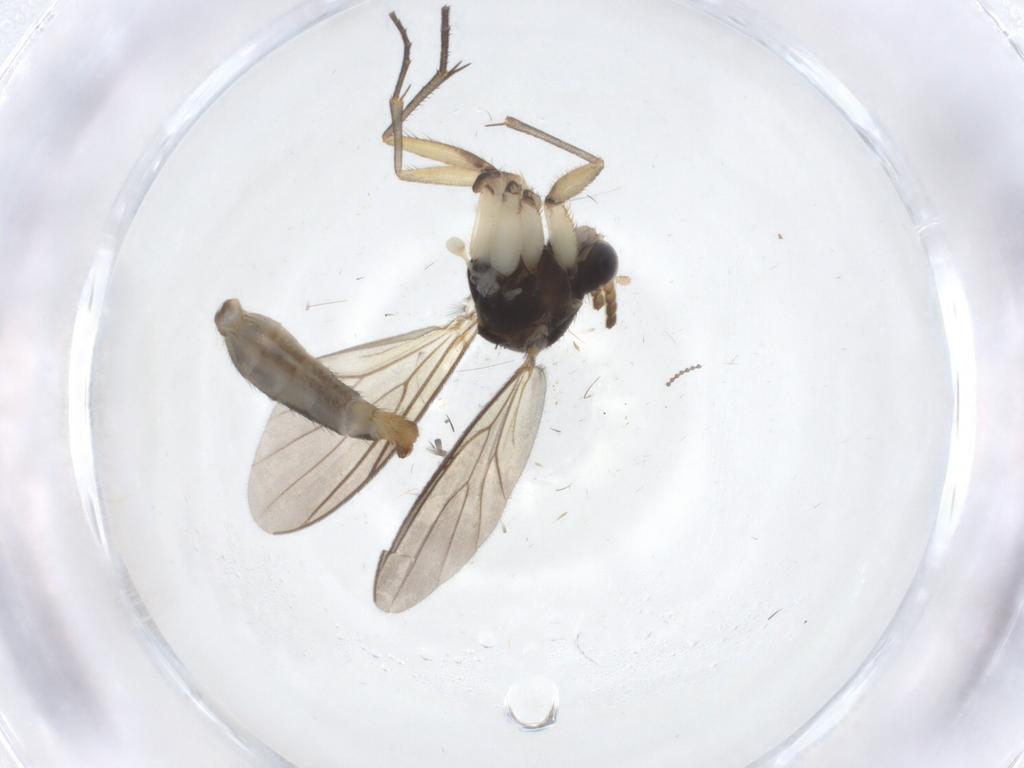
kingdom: Animalia
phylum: Arthropoda
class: Insecta
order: Diptera
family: Cecidomyiidae
